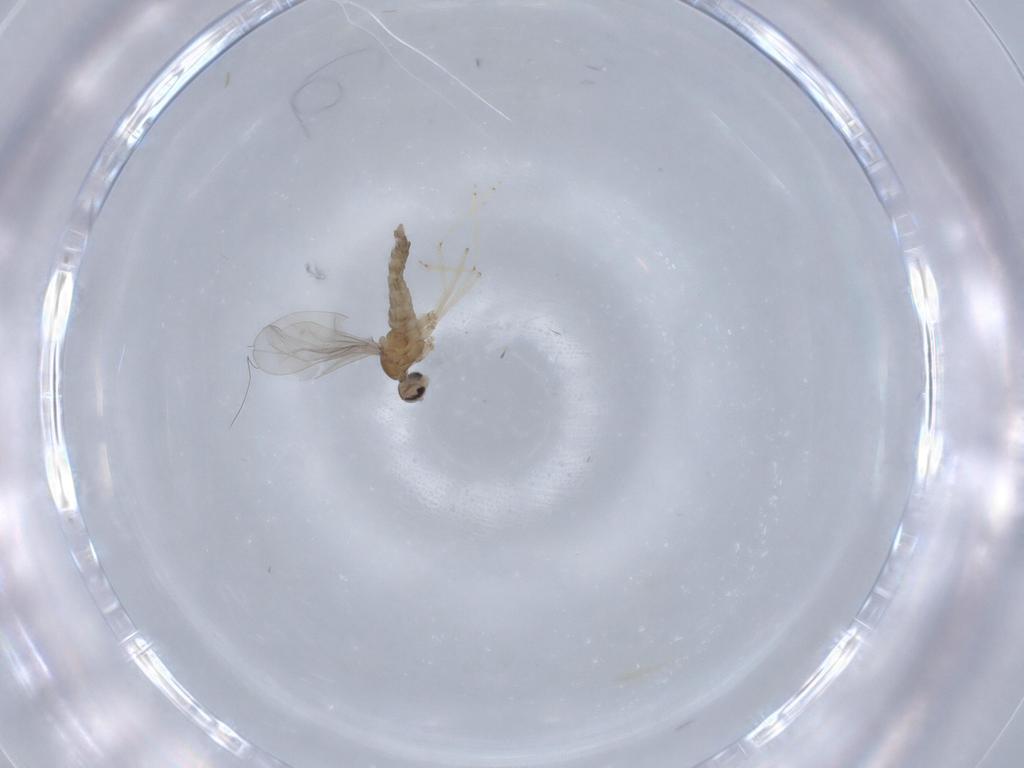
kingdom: Animalia
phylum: Arthropoda
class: Insecta
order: Diptera
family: Cecidomyiidae
